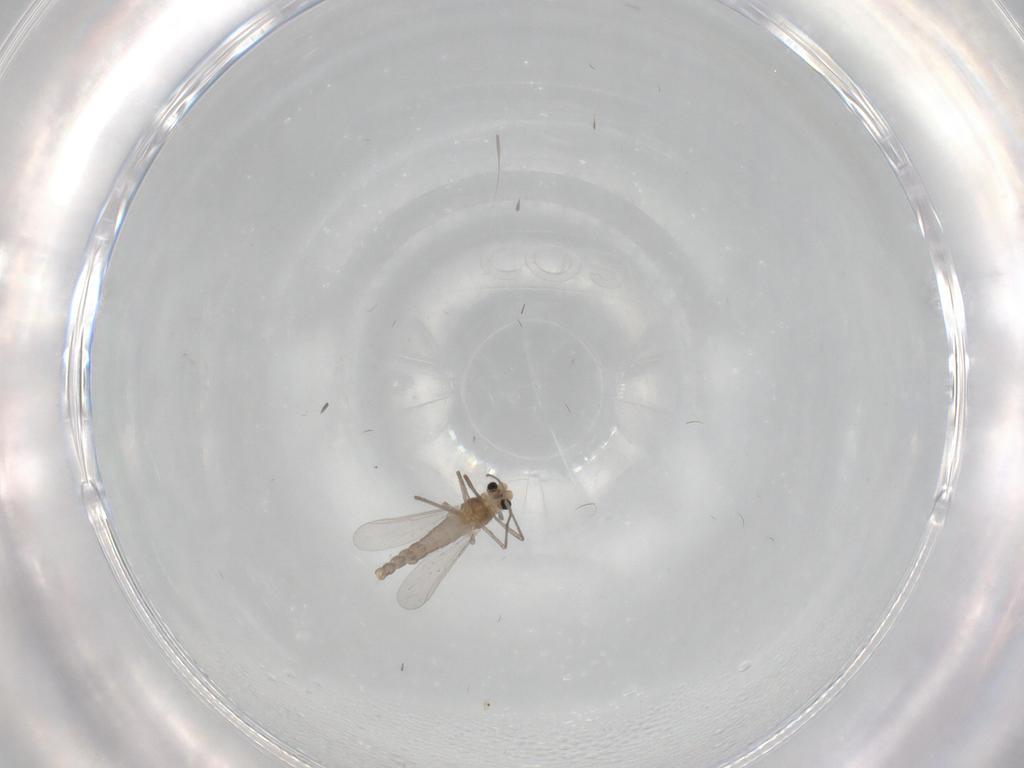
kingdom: Animalia
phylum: Arthropoda
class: Insecta
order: Diptera
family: Chironomidae
